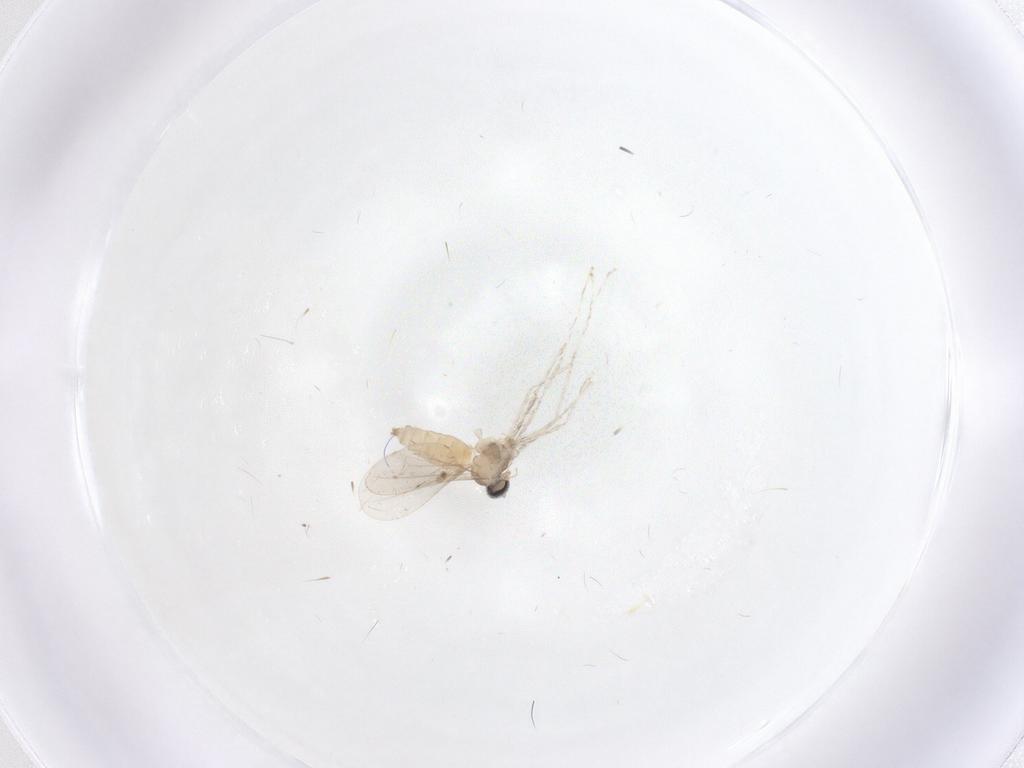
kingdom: Animalia
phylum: Arthropoda
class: Insecta
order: Diptera
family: Cecidomyiidae
